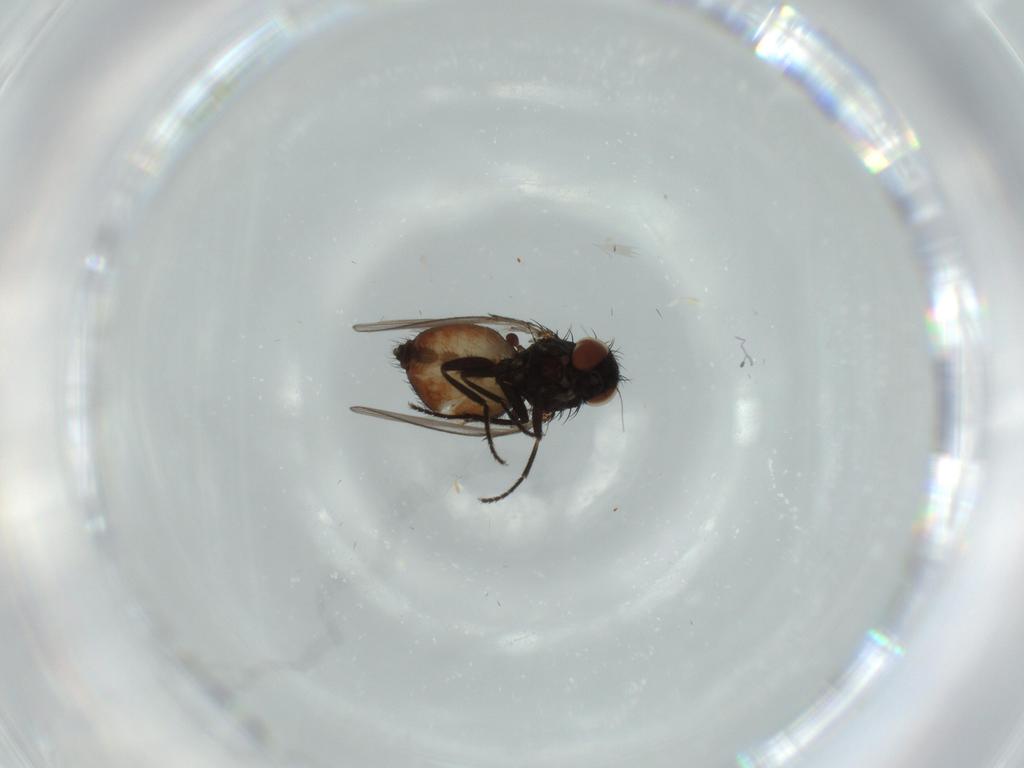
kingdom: Animalia
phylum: Arthropoda
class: Insecta
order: Diptera
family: Milichiidae
